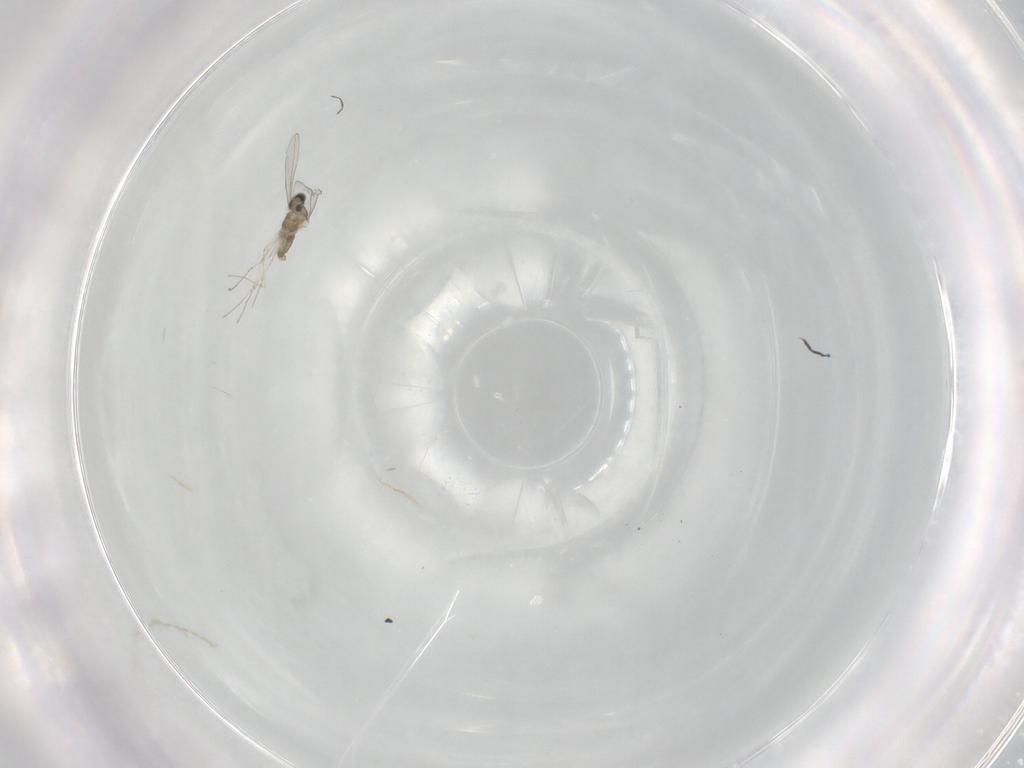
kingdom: Animalia
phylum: Arthropoda
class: Insecta
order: Diptera
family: Cecidomyiidae
